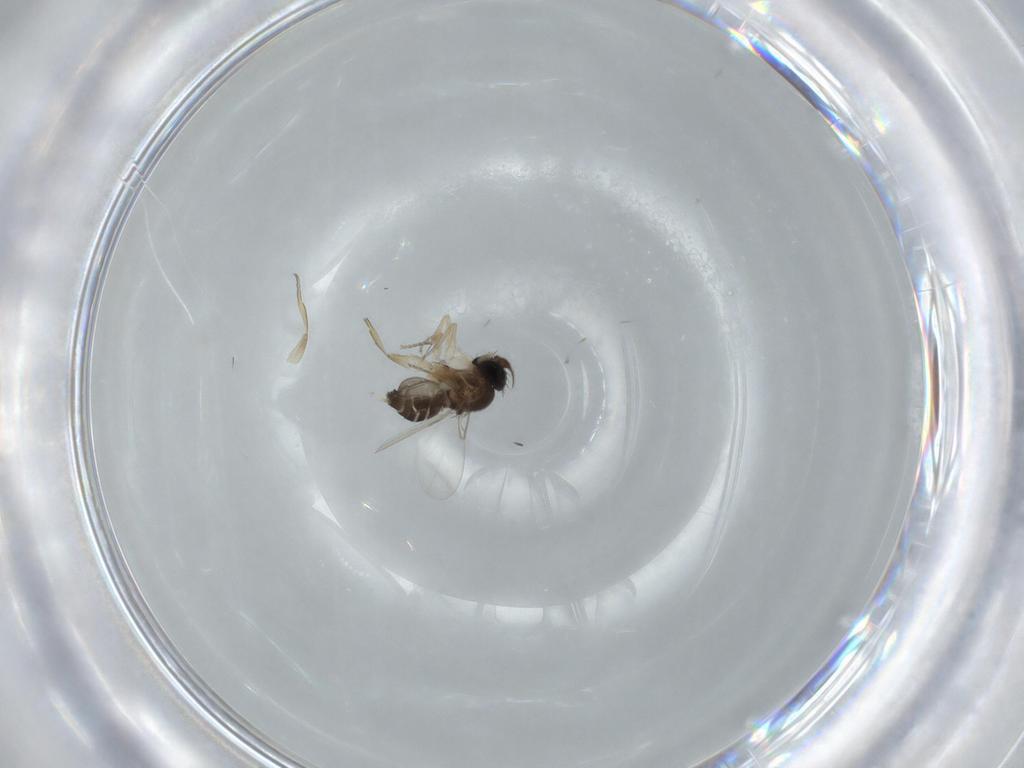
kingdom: Animalia
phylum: Arthropoda
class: Insecta
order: Diptera
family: Phoridae
